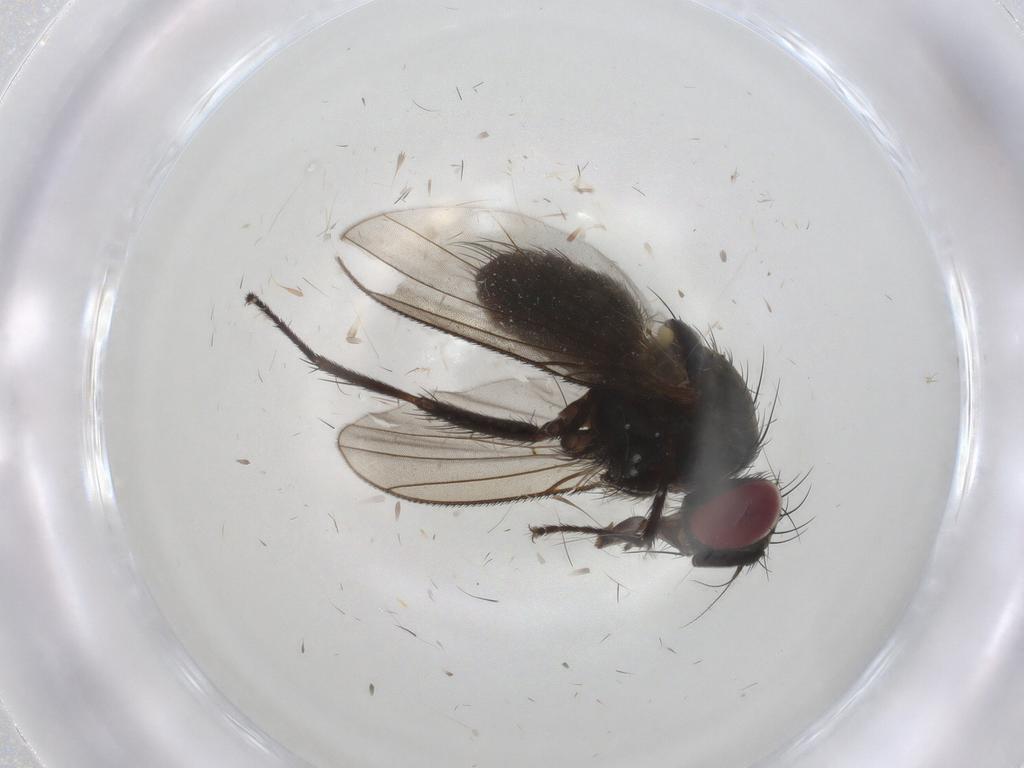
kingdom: Animalia
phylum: Arthropoda
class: Insecta
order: Diptera
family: Muscidae
